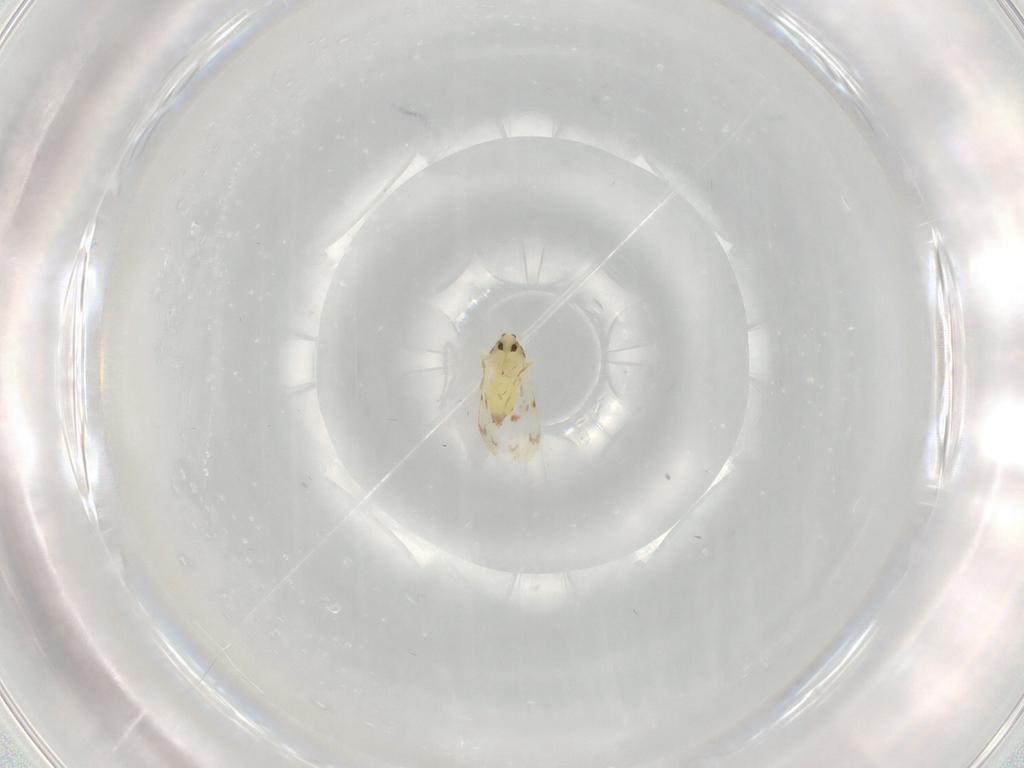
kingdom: Animalia
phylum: Arthropoda
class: Insecta
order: Hemiptera
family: Aleyrodidae
